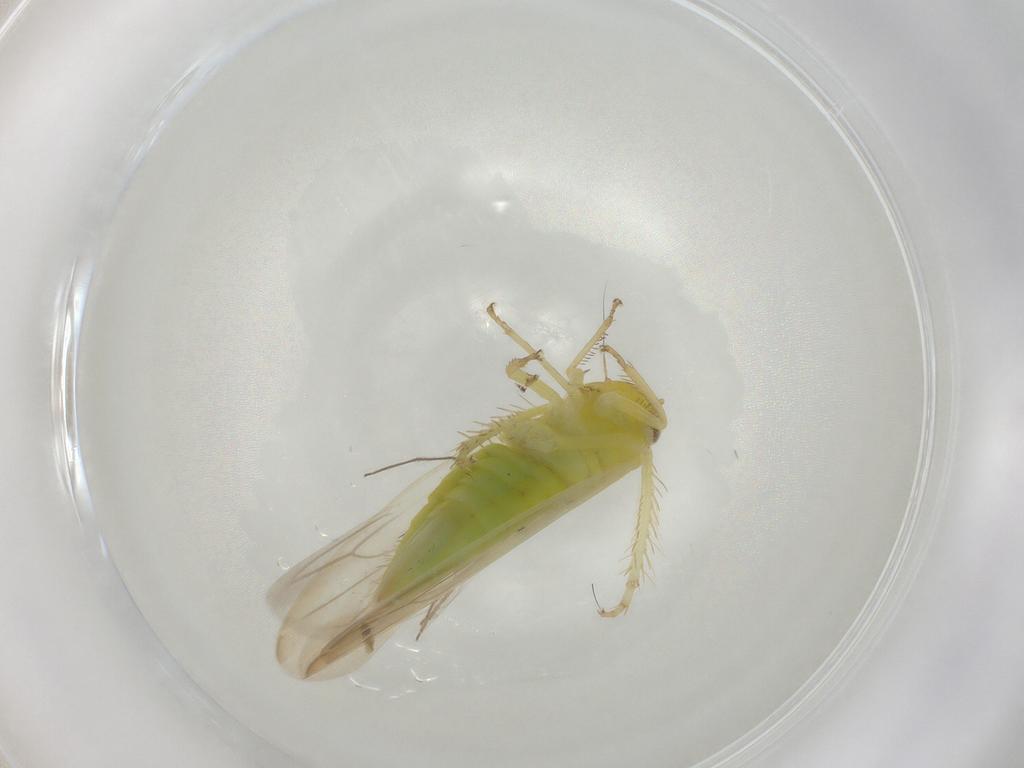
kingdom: Animalia
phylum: Arthropoda
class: Insecta
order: Hemiptera
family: Cicadellidae
